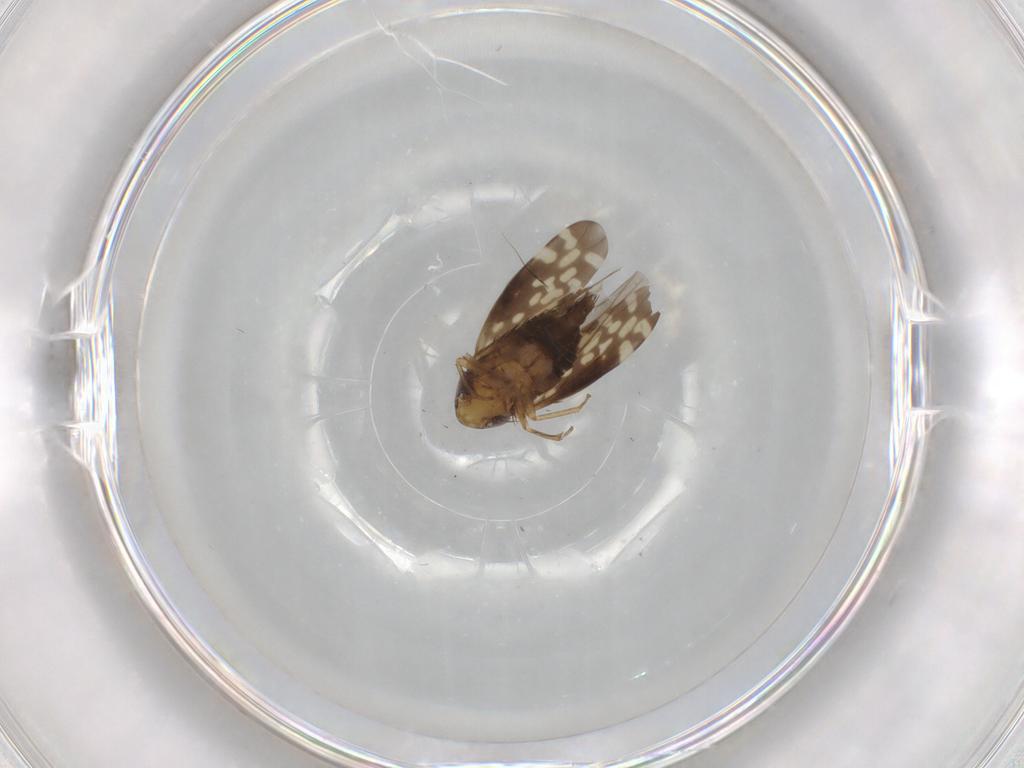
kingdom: Animalia
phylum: Arthropoda
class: Insecta
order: Hemiptera
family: Cicadellidae
